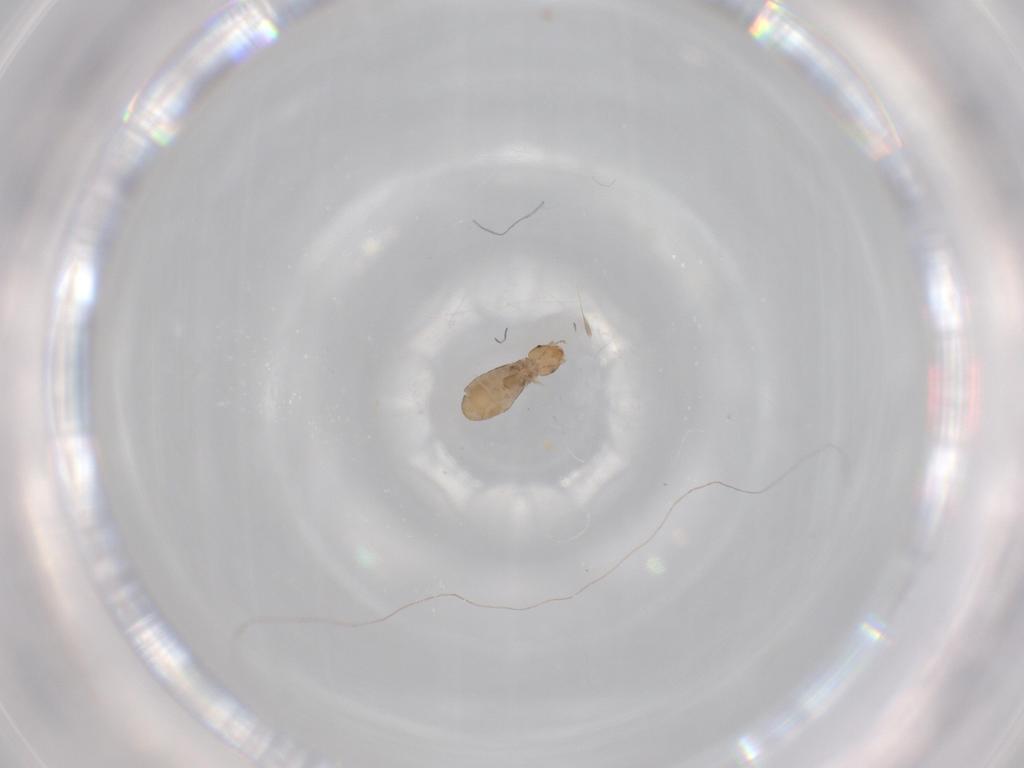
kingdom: Animalia
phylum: Arthropoda
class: Insecta
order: Psocodea
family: Liposcelididae
